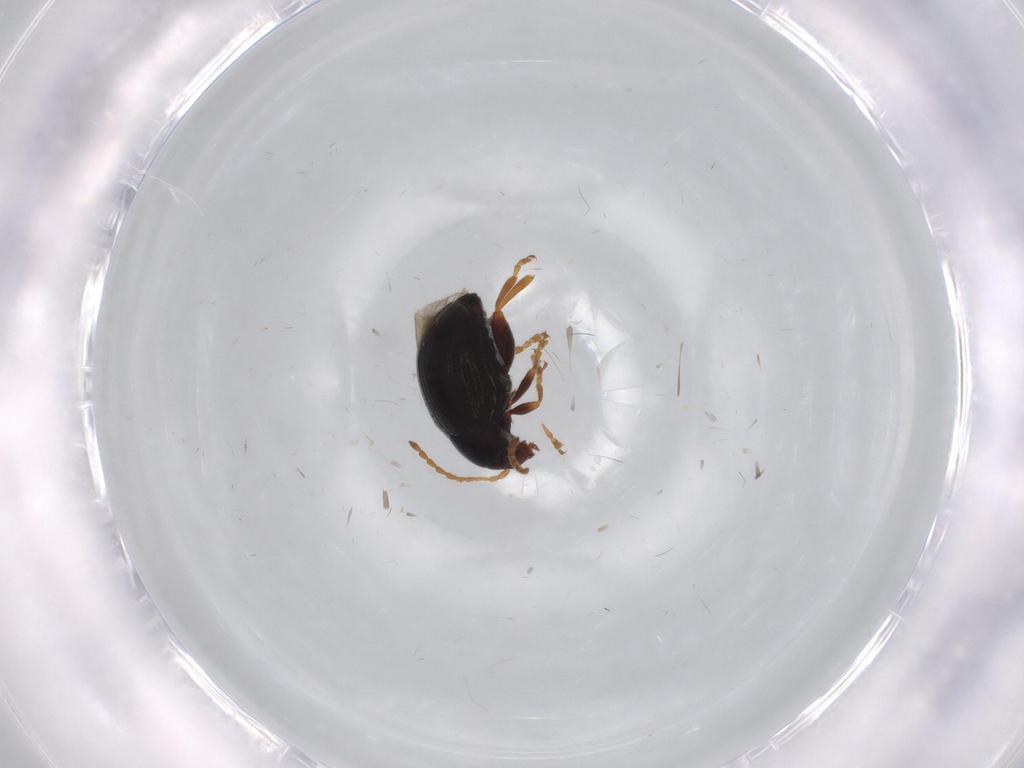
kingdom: Animalia
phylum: Arthropoda
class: Insecta
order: Coleoptera
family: Chrysomelidae
